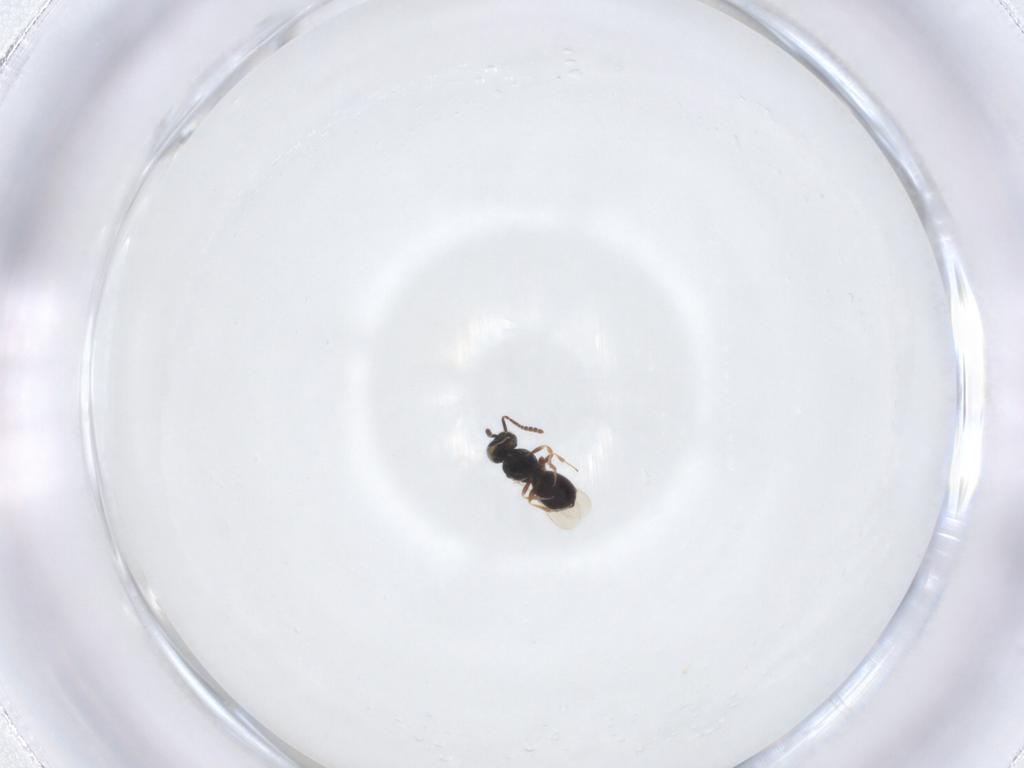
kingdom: Animalia
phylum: Arthropoda
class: Insecta
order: Hymenoptera
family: Scelionidae
